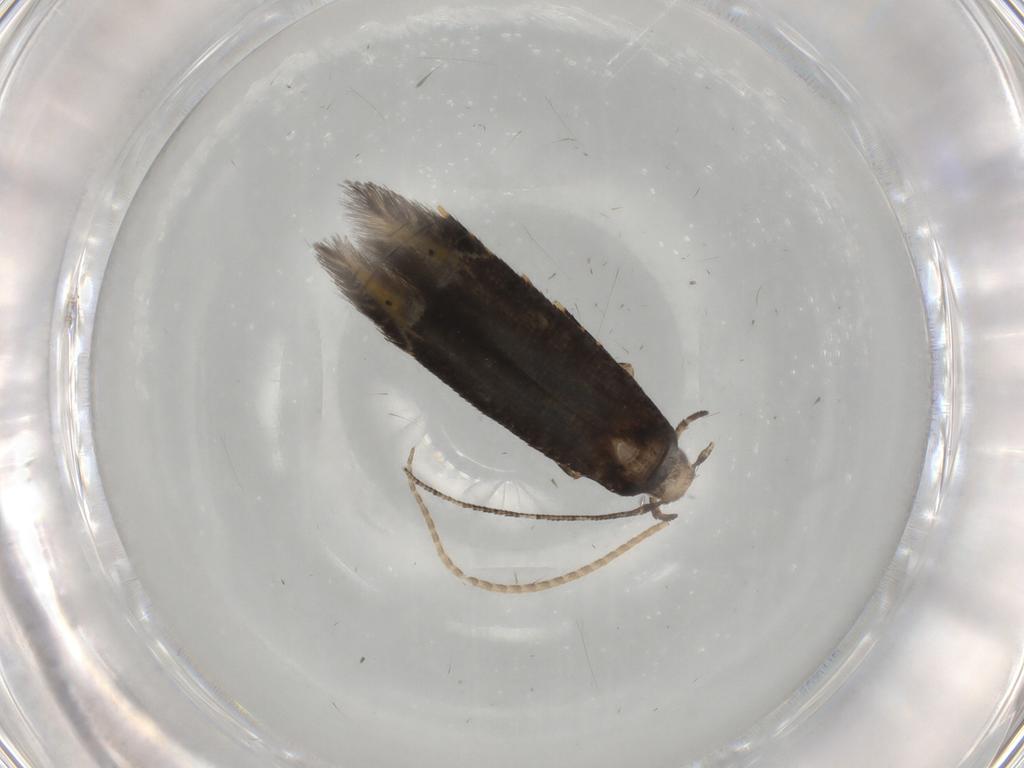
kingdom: Animalia
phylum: Arthropoda
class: Insecta
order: Lepidoptera
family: Cosmopterigidae
